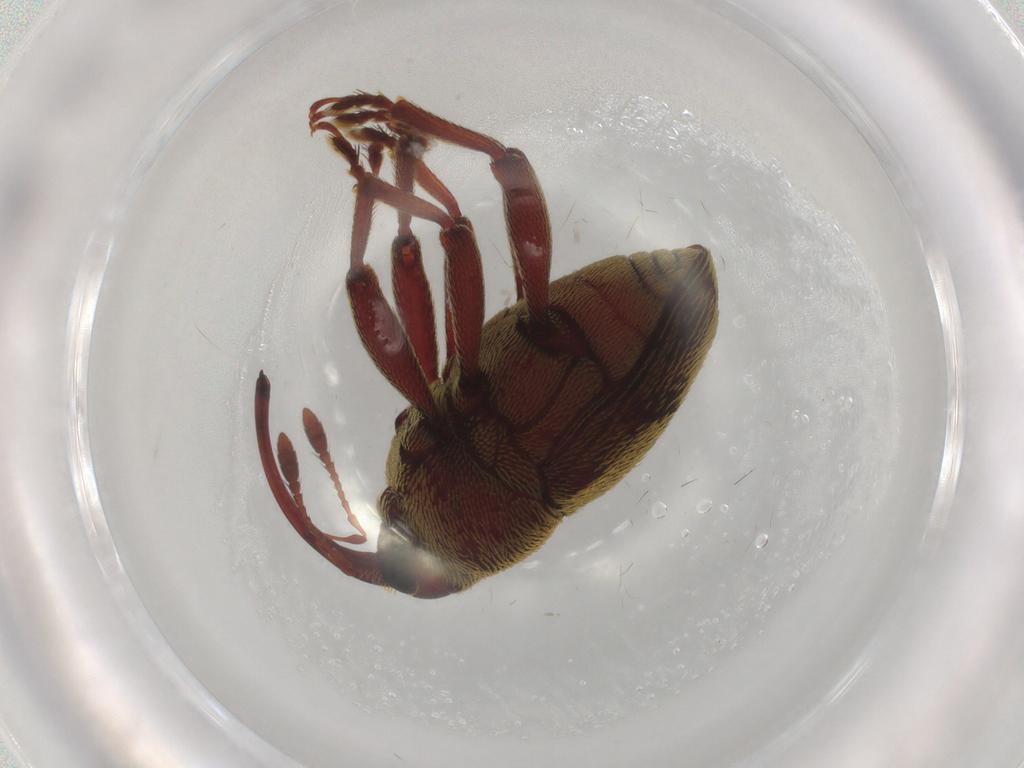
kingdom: Animalia
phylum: Arthropoda
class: Insecta
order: Coleoptera
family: Curculionidae
